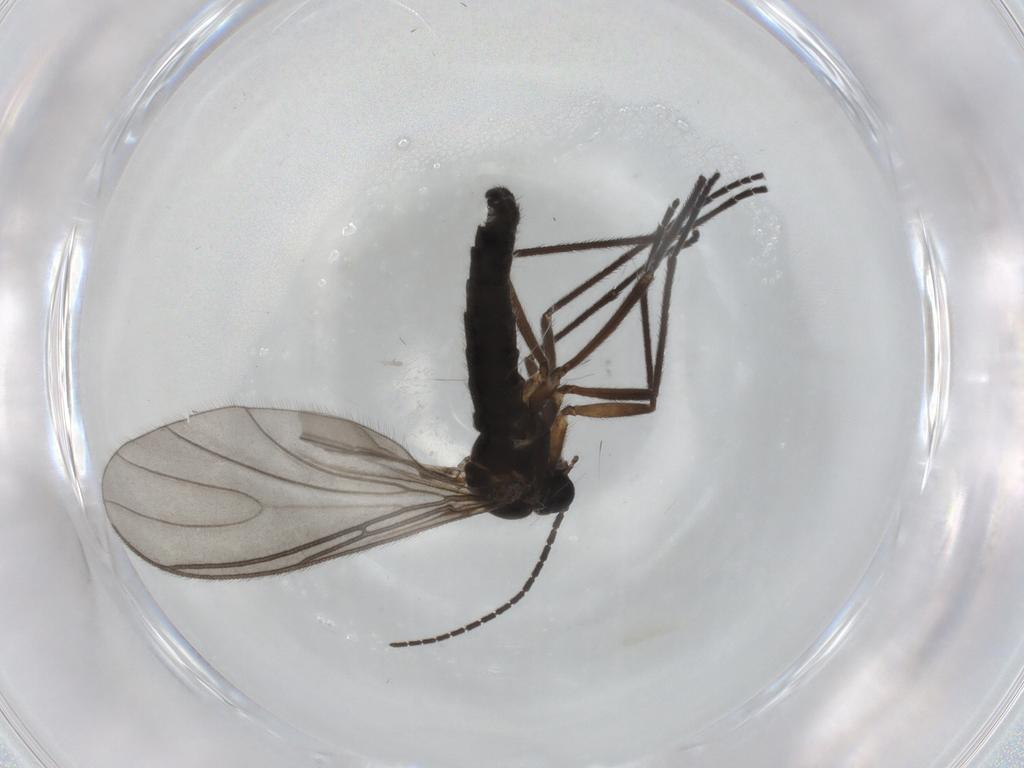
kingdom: Animalia
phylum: Arthropoda
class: Insecta
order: Diptera
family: Sciaridae
